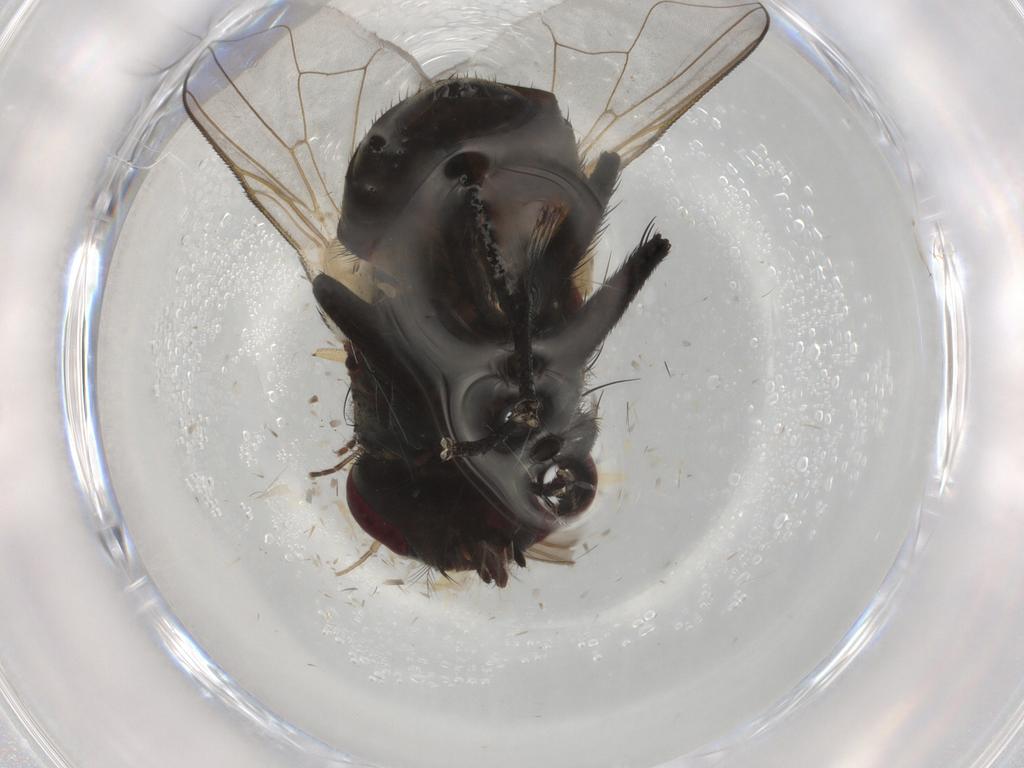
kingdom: Animalia
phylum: Arthropoda
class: Insecta
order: Diptera
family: Muscidae
